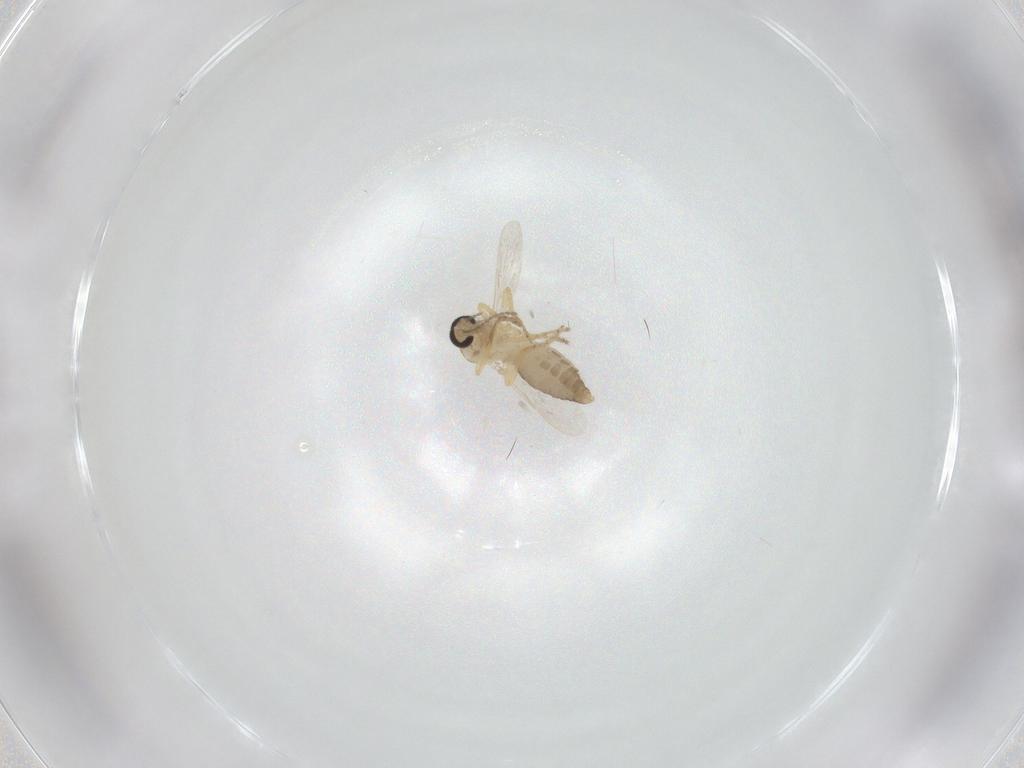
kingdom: Animalia
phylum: Arthropoda
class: Insecta
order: Diptera
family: Ceratopogonidae
